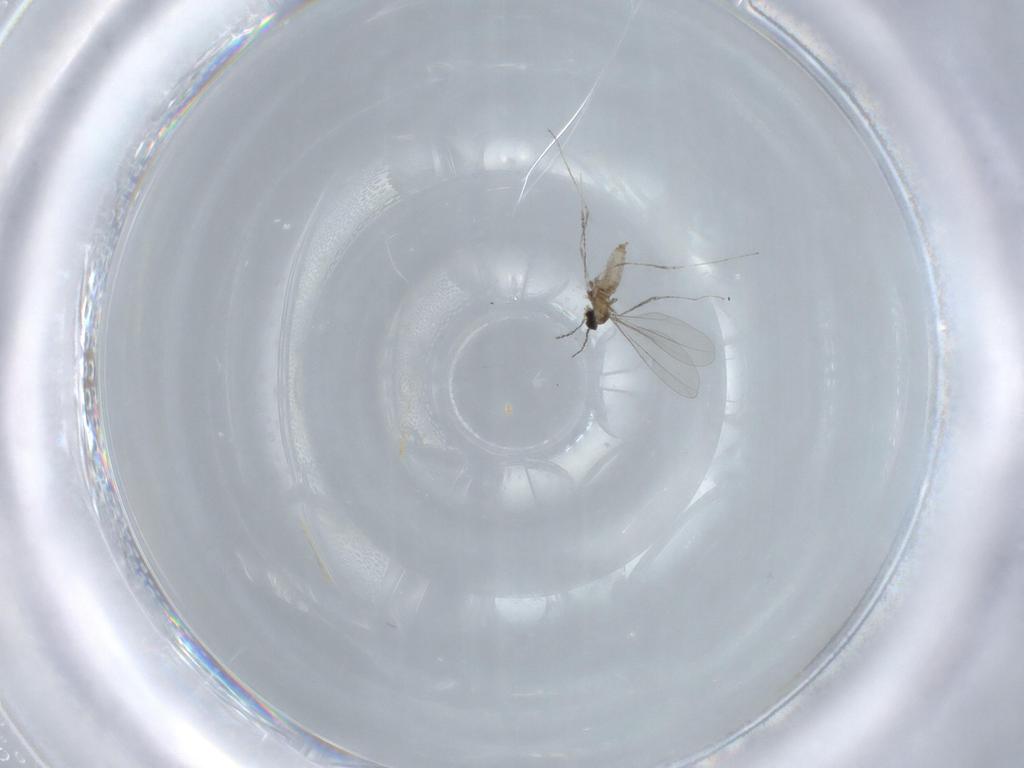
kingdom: Animalia
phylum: Arthropoda
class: Insecta
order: Diptera
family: Cecidomyiidae
